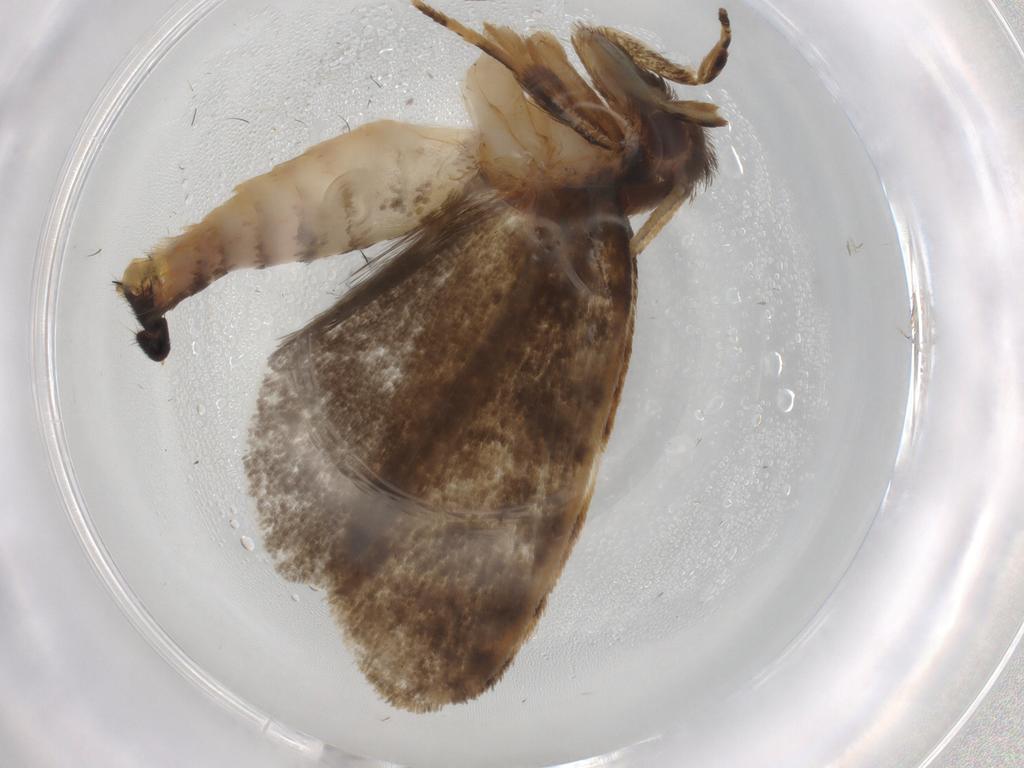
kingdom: Animalia
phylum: Arthropoda
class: Insecta
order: Lepidoptera
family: Tineidae
